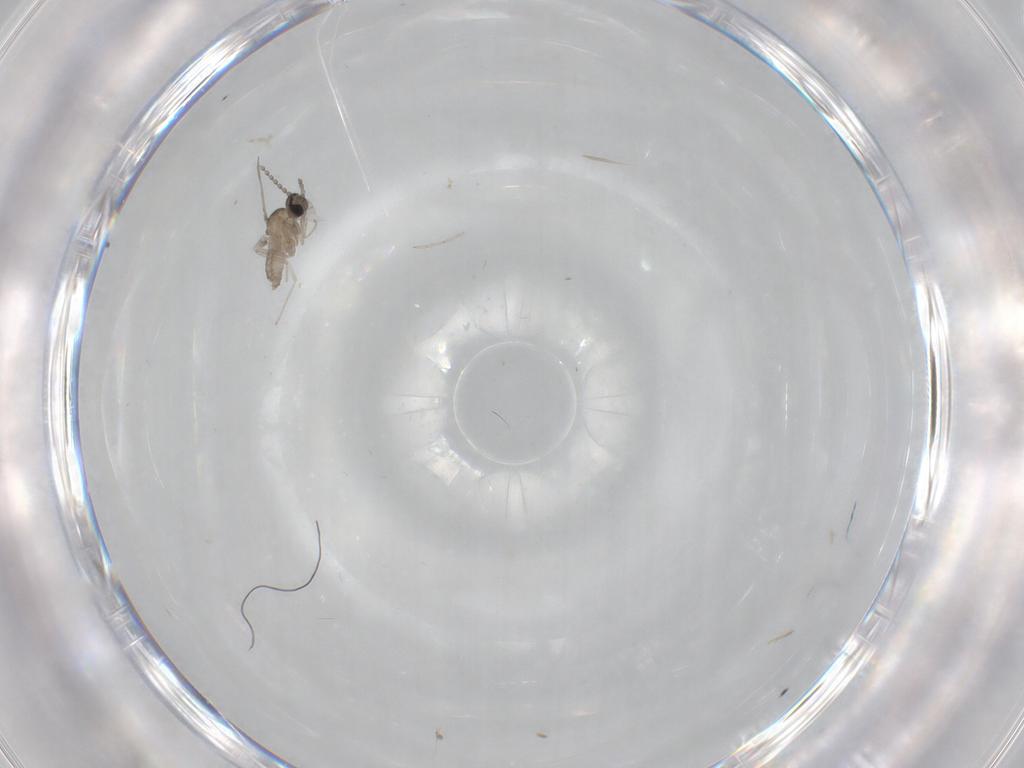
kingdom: Animalia
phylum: Arthropoda
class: Insecta
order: Diptera
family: Cecidomyiidae
